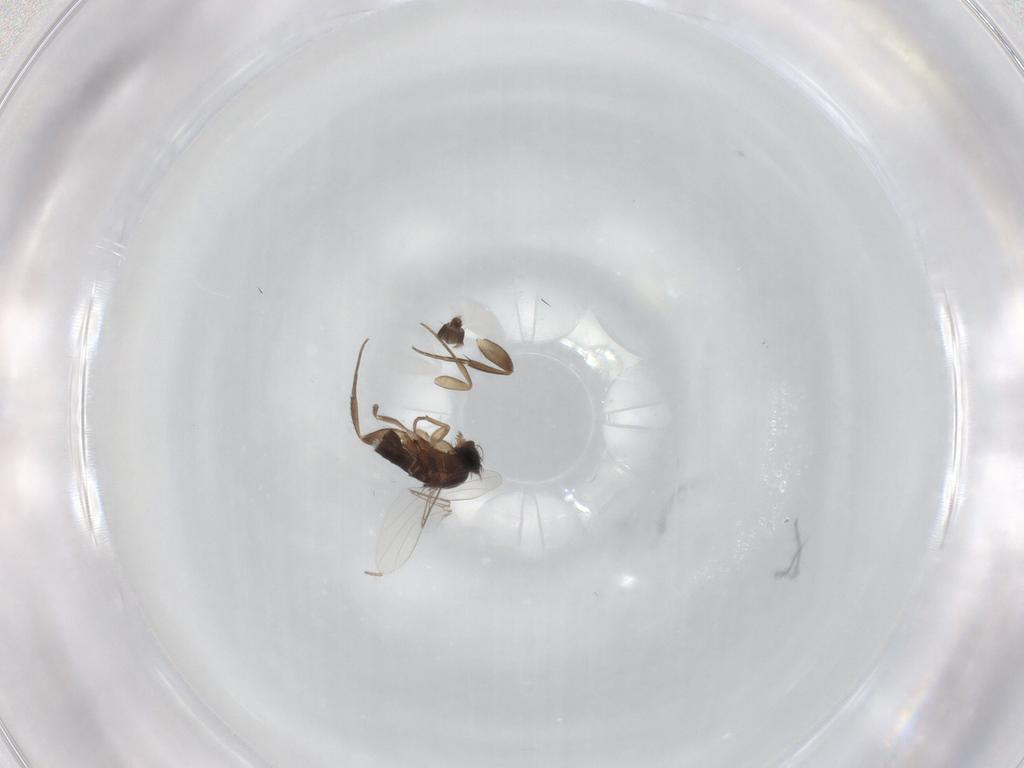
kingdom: Animalia
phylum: Arthropoda
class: Insecta
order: Diptera
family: Phoridae
